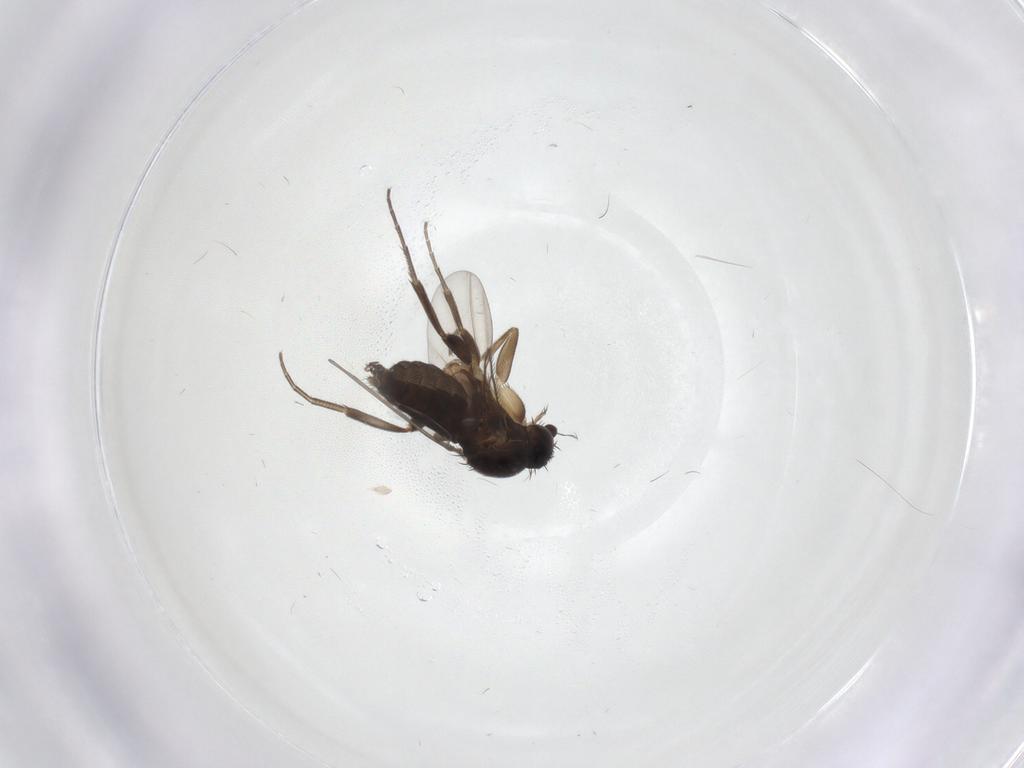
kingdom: Animalia
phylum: Arthropoda
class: Insecta
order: Diptera
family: Phoridae
